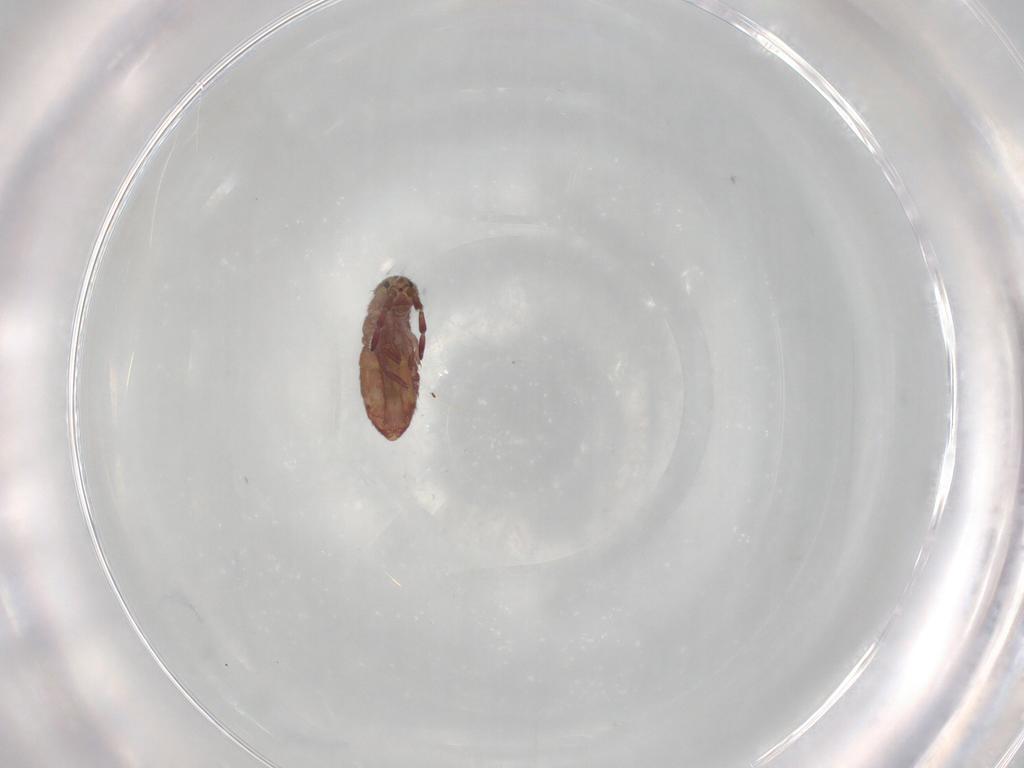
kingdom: Animalia
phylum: Arthropoda
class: Collembola
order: Entomobryomorpha
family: Isotomidae
